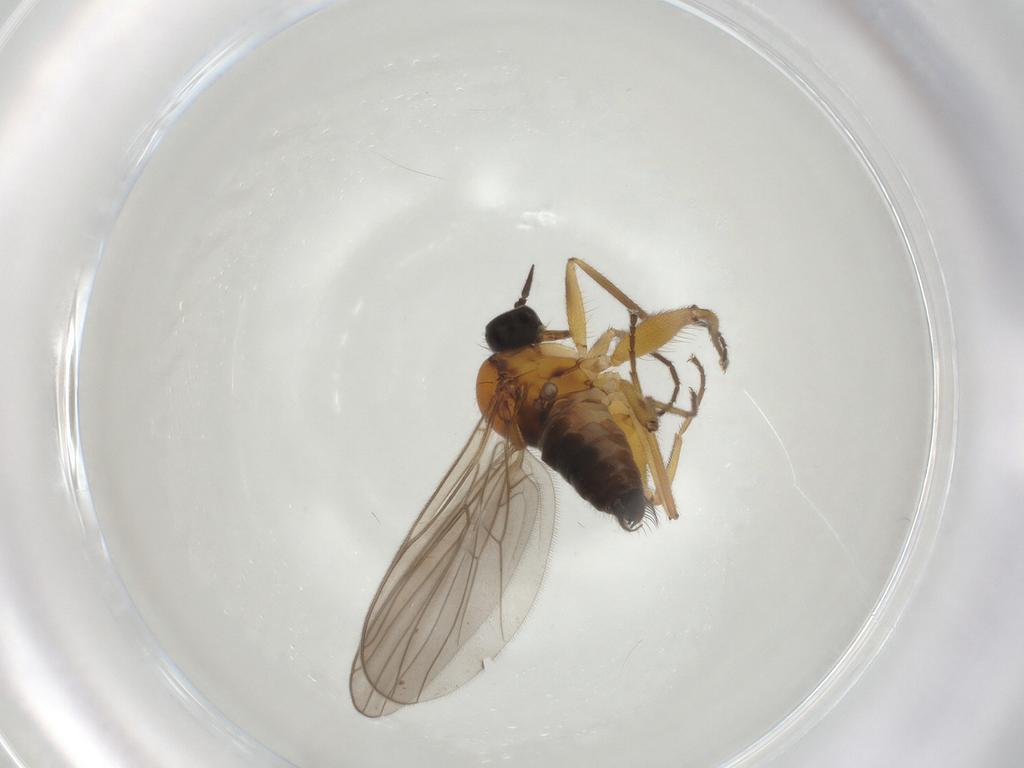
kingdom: Animalia
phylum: Arthropoda
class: Insecta
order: Diptera
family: Hybotidae
